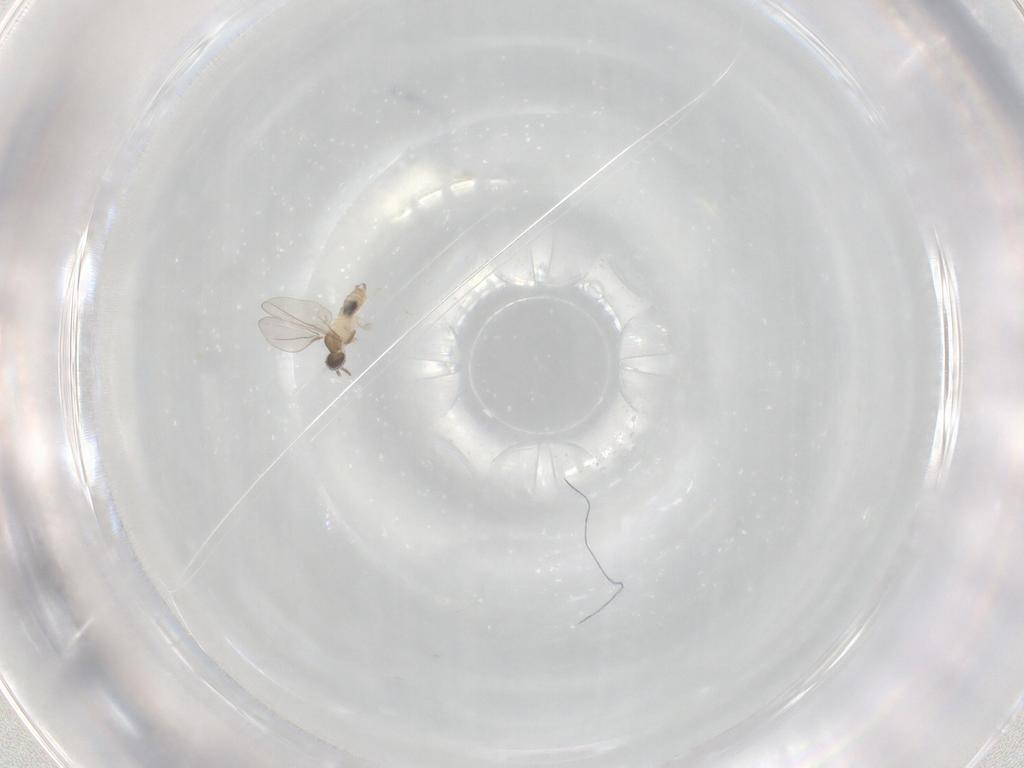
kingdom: Animalia
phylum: Arthropoda
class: Insecta
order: Diptera
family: Cecidomyiidae
